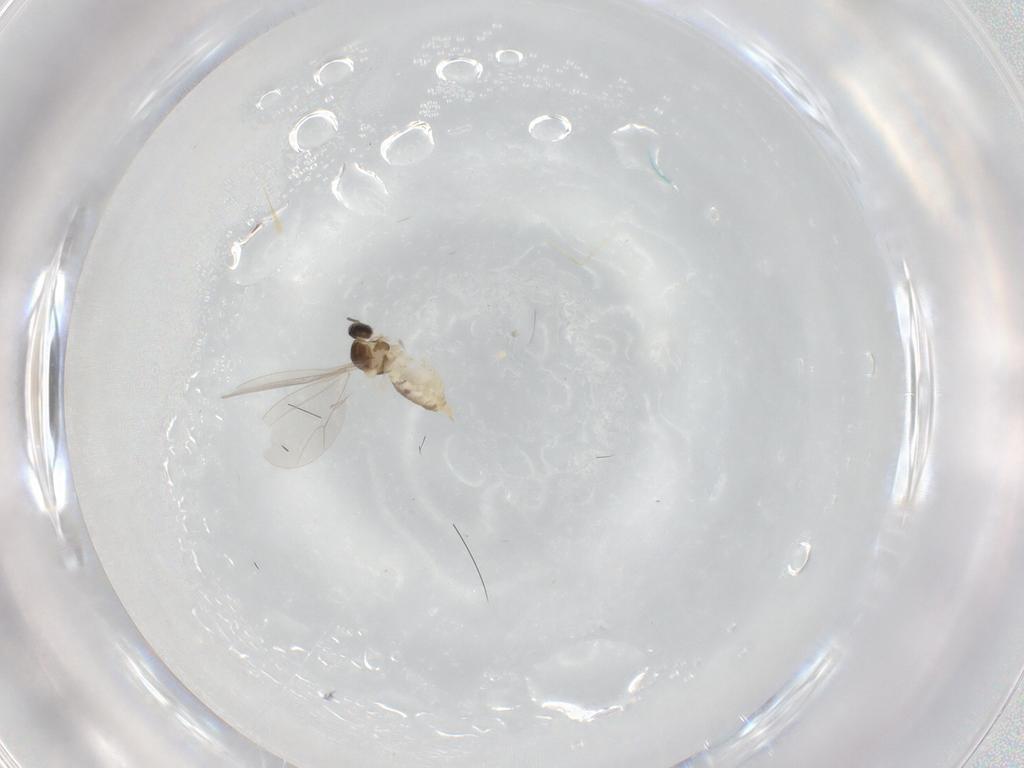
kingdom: Animalia
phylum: Arthropoda
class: Insecta
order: Diptera
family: Cecidomyiidae
